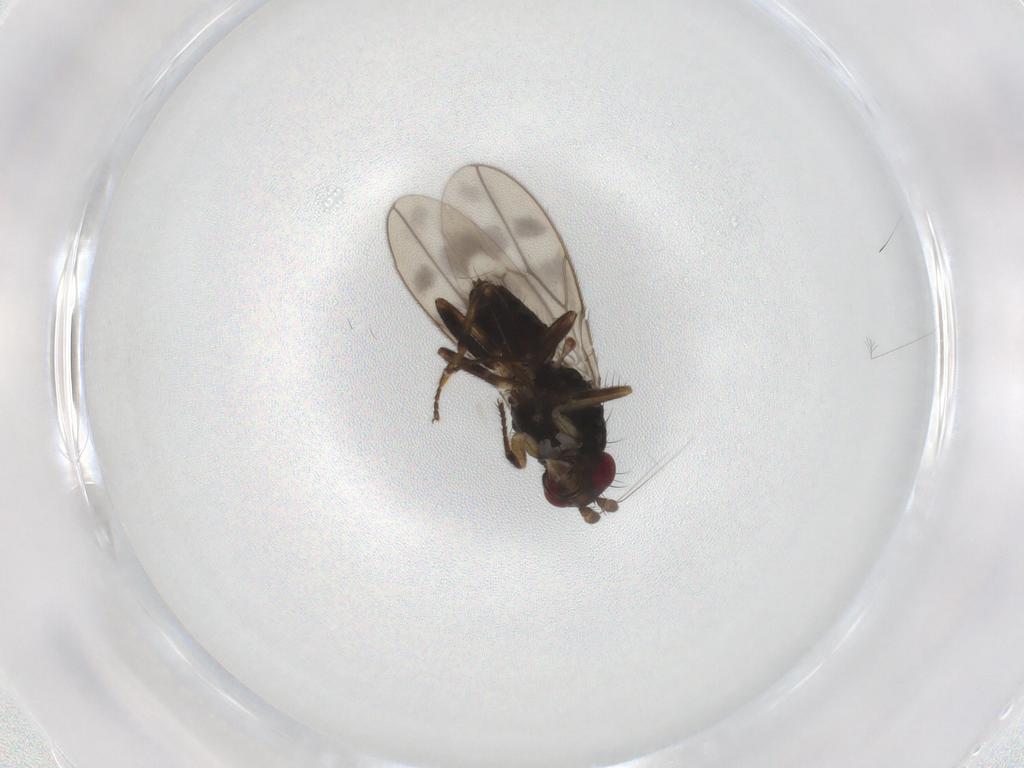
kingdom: Animalia
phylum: Arthropoda
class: Insecta
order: Diptera
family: Sphaeroceridae
